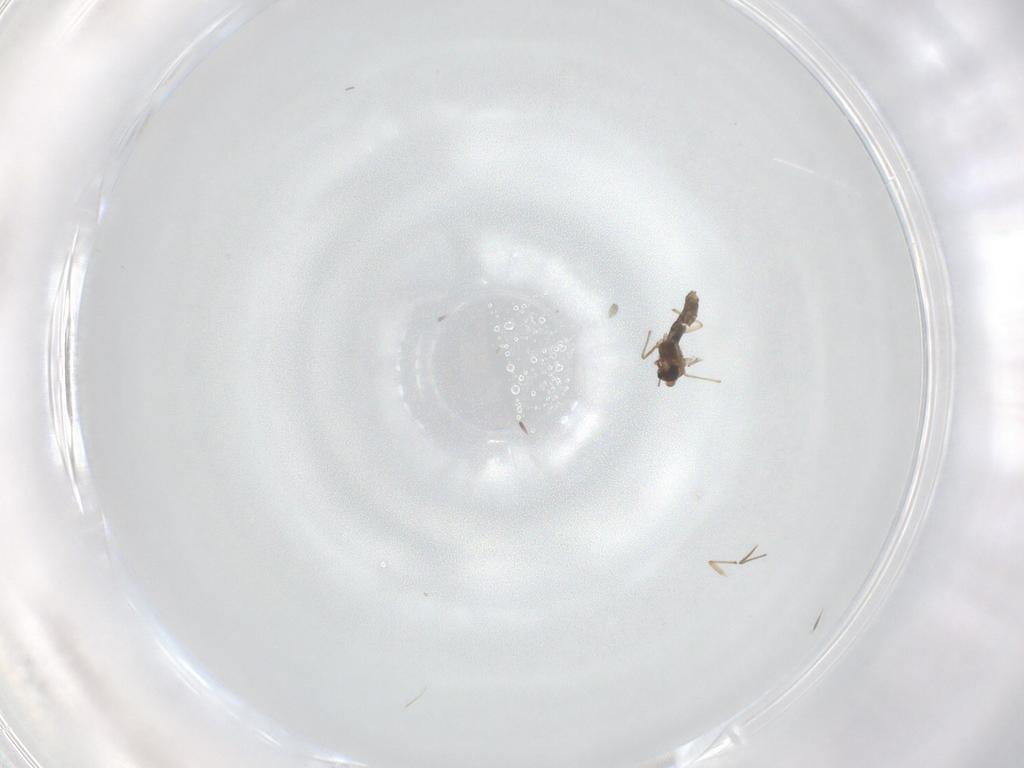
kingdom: Animalia
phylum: Arthropoda
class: Insecta
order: Diptera
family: Chironomidae
